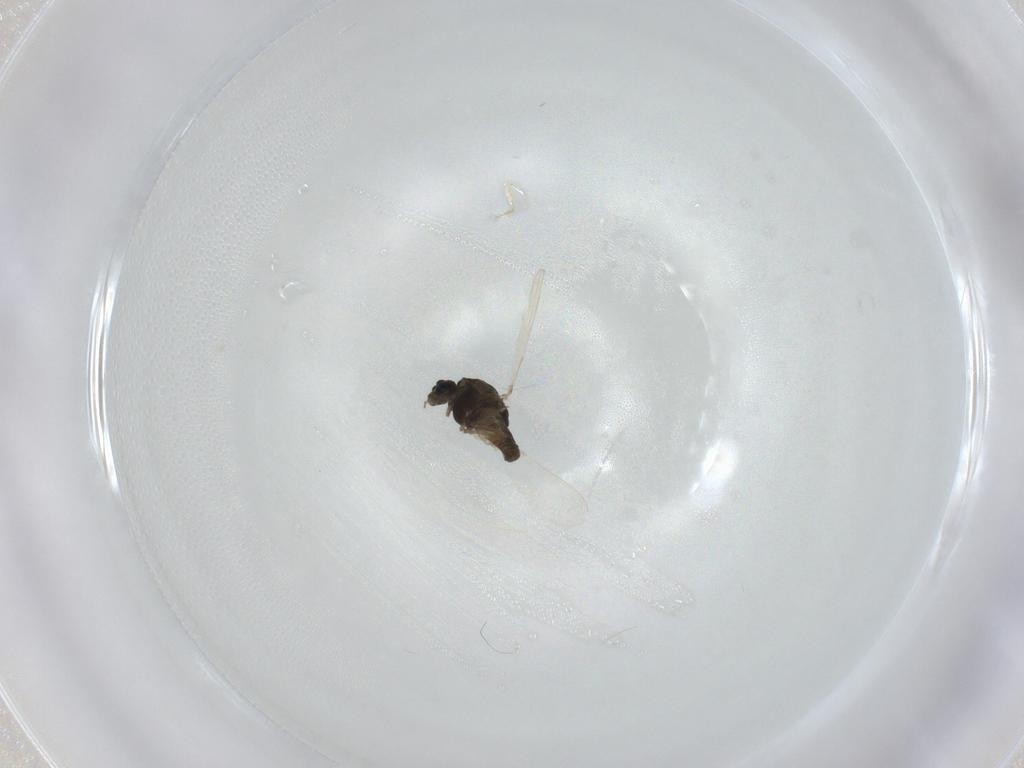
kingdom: Animalia
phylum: Arthropoda
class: Insecta
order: Diptera
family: Chironomidae
